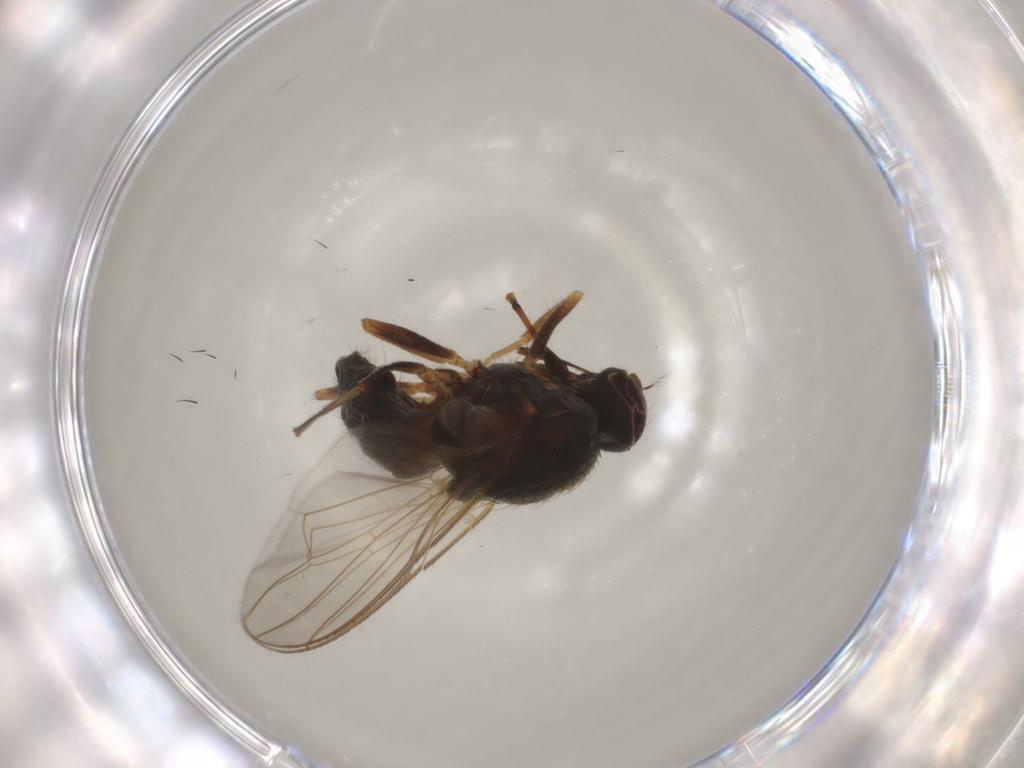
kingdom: Animalia
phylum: Arthropoda
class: Insecta
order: Diptera
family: Muscidae
